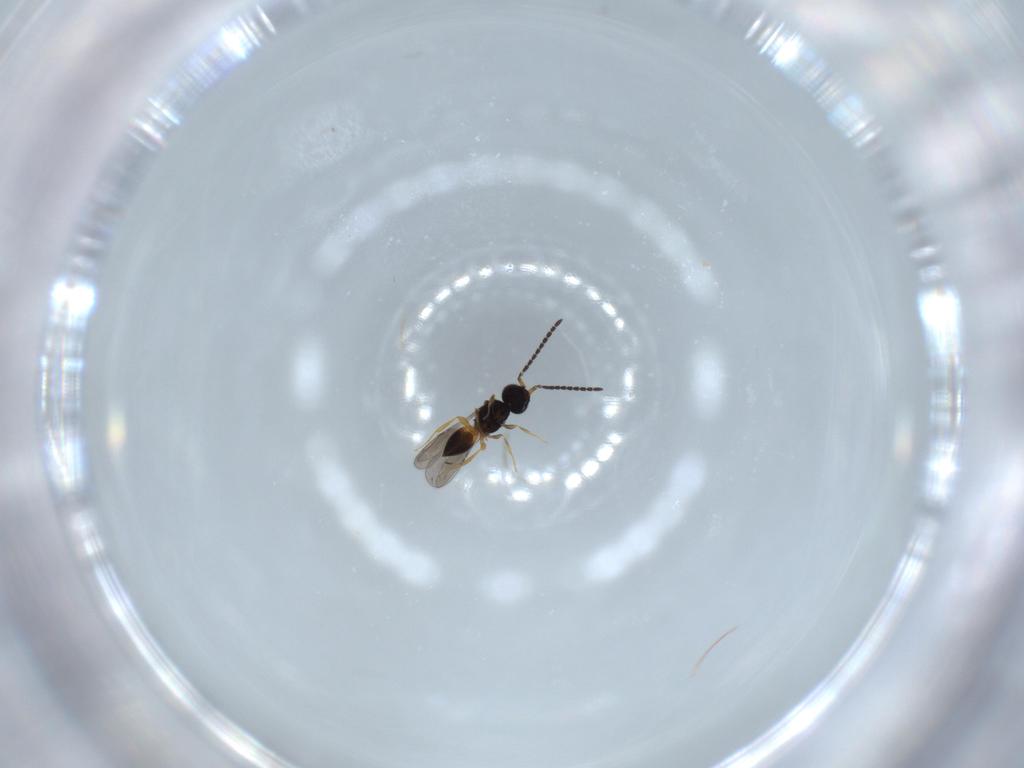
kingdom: Animalia
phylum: Arthropoda
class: Insecta
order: Hymenoptera
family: Ceraphronidae
